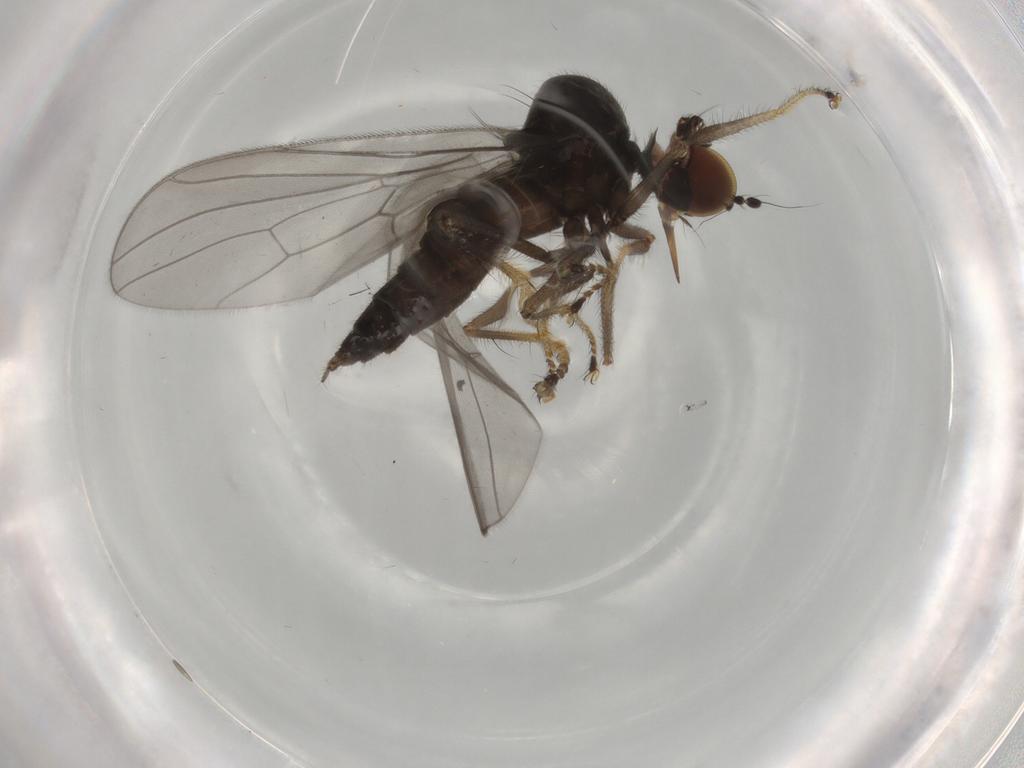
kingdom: Animalia
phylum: Arthropoda
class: Insecta
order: Diptera
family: Hybotidae
